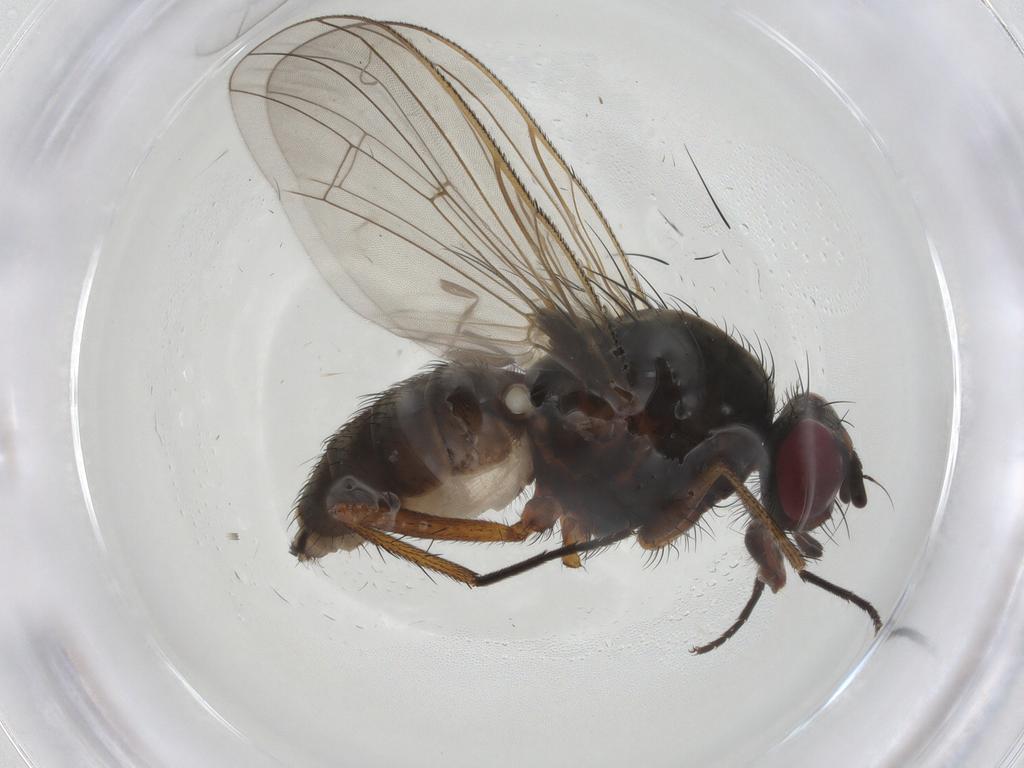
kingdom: Animalia
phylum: Arthropoda
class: Insecta
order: Diptera
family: Anthomyiidae
